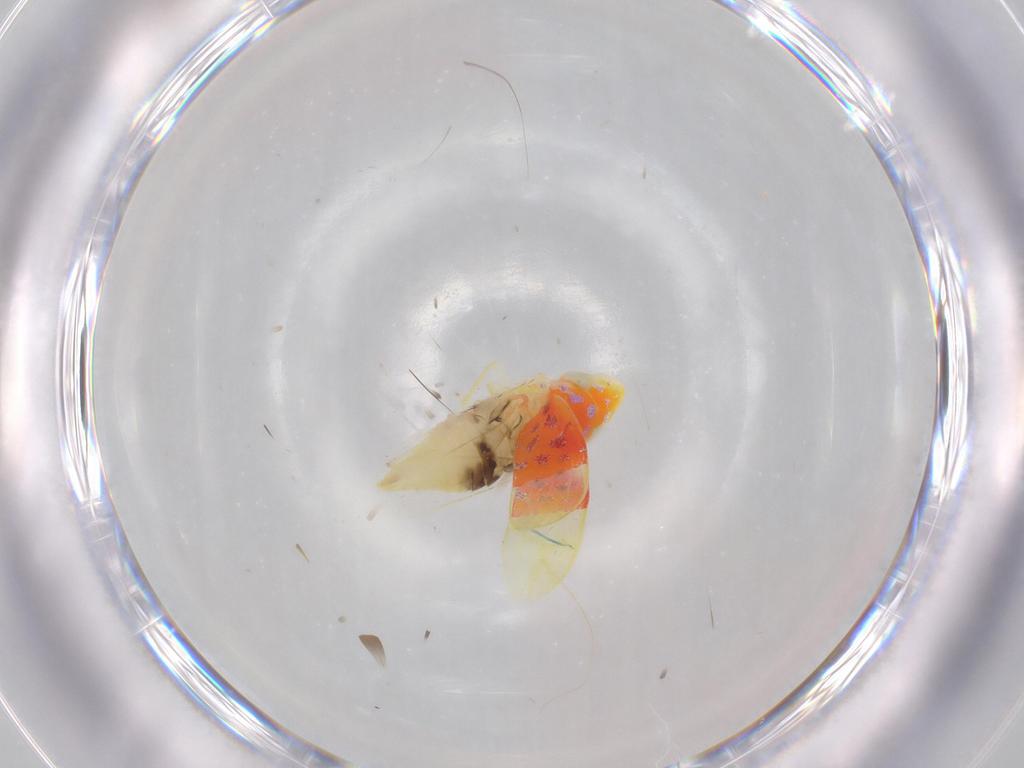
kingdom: Animalia
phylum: Arthropoda
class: Insecta
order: Hemiptera
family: Cicadellidae
